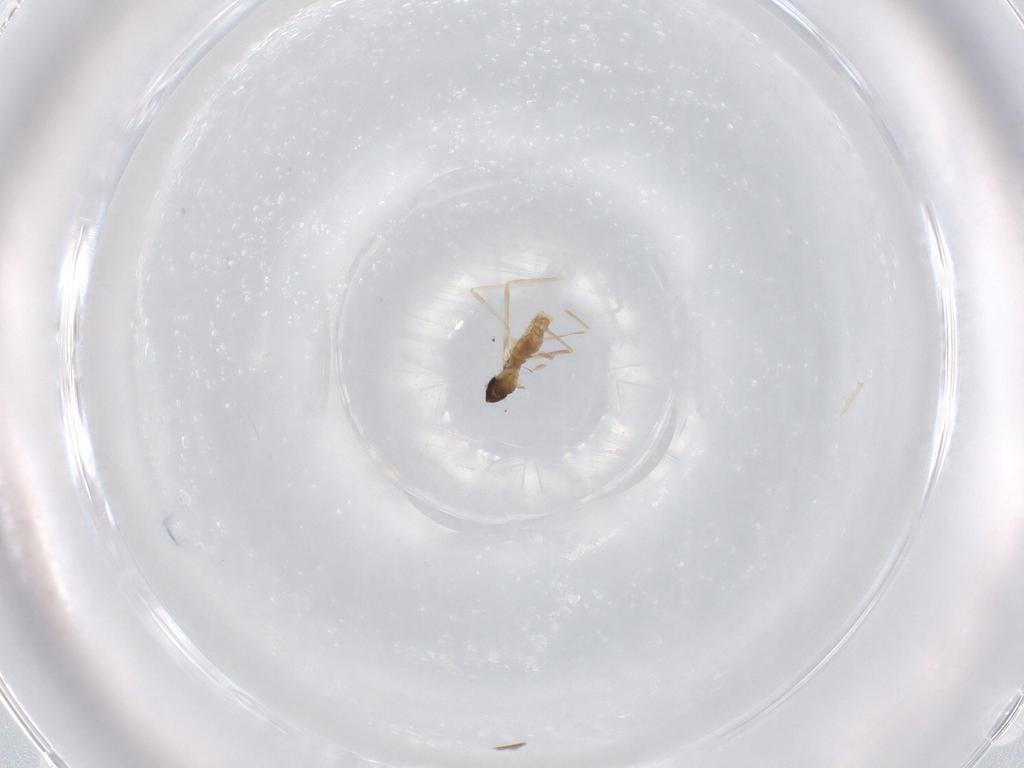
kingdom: Animalia
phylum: Arthropoda
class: Insecta
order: Diptera
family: Cecidomyiidae
